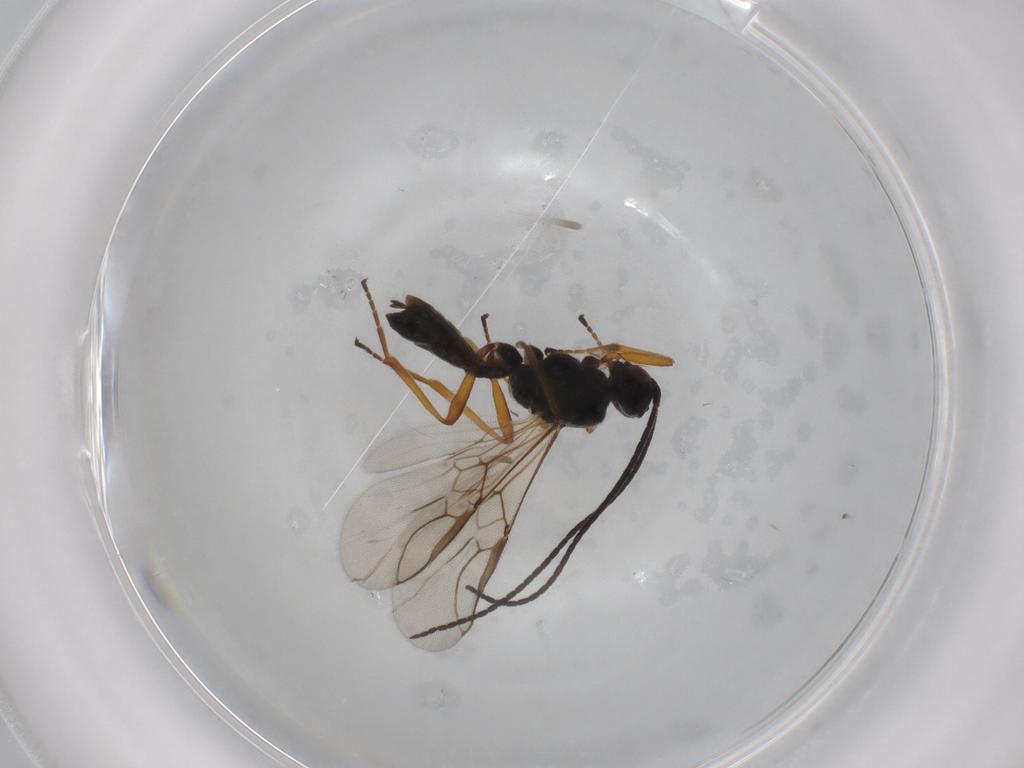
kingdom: Animalia
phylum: Arthropoda
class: Insecta
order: Hymenoptera
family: Braconidae
